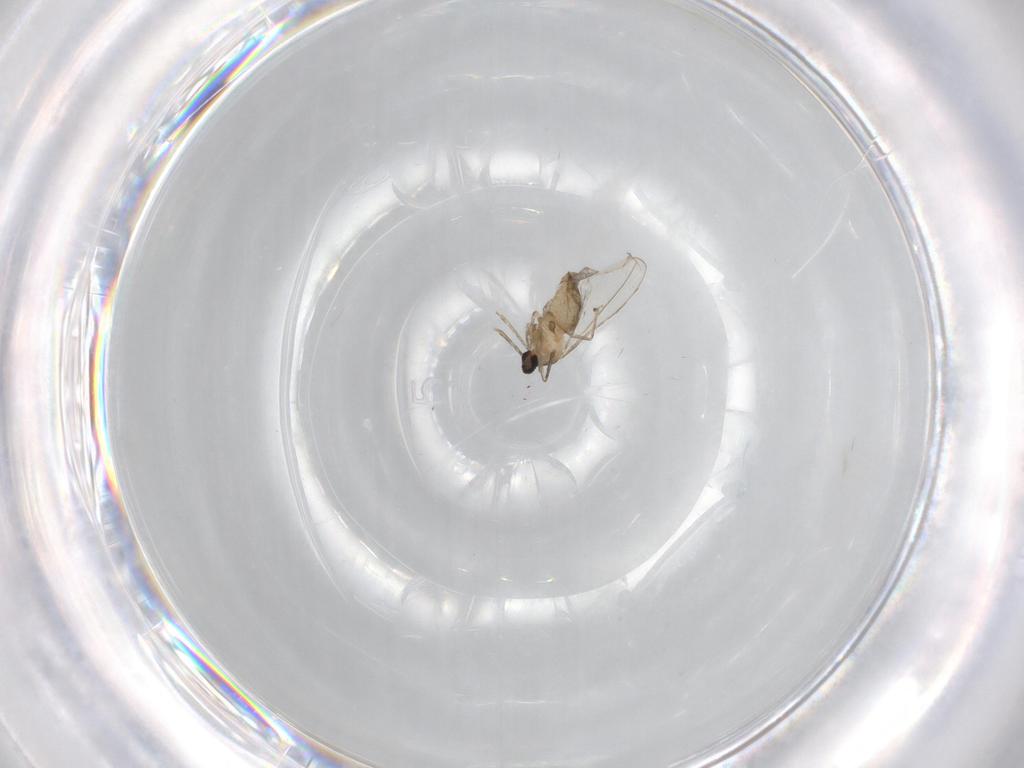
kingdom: Animalia
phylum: Arthropoda
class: Insecta
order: Diptera
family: Cecidomyiidae
